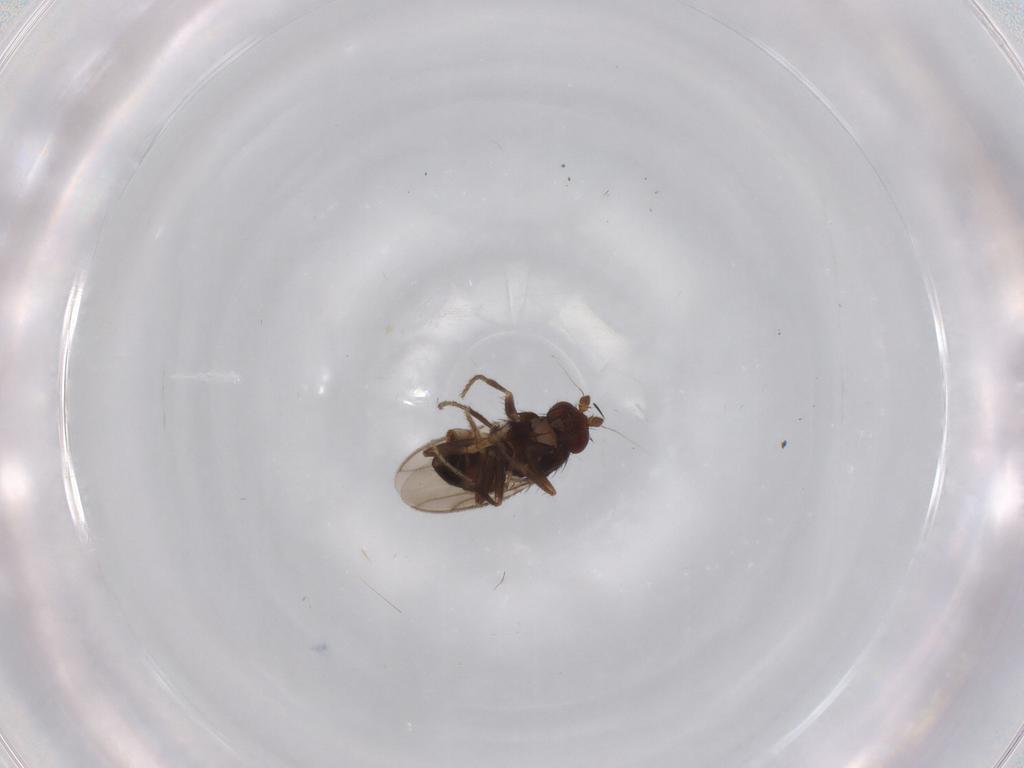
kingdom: Animalia
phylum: Arthropoda
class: Insecta
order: Diptera
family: Sphaeroceridae
